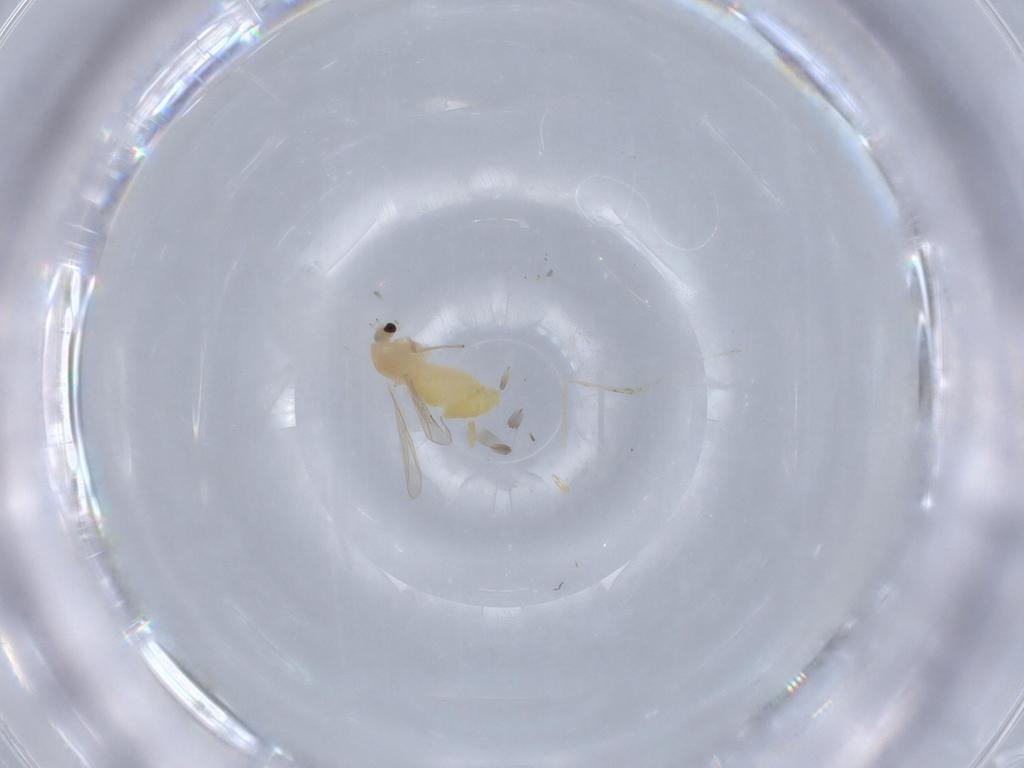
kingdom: Animalia
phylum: Arthropoda
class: Insecta
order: Diptera
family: Chironomidae
